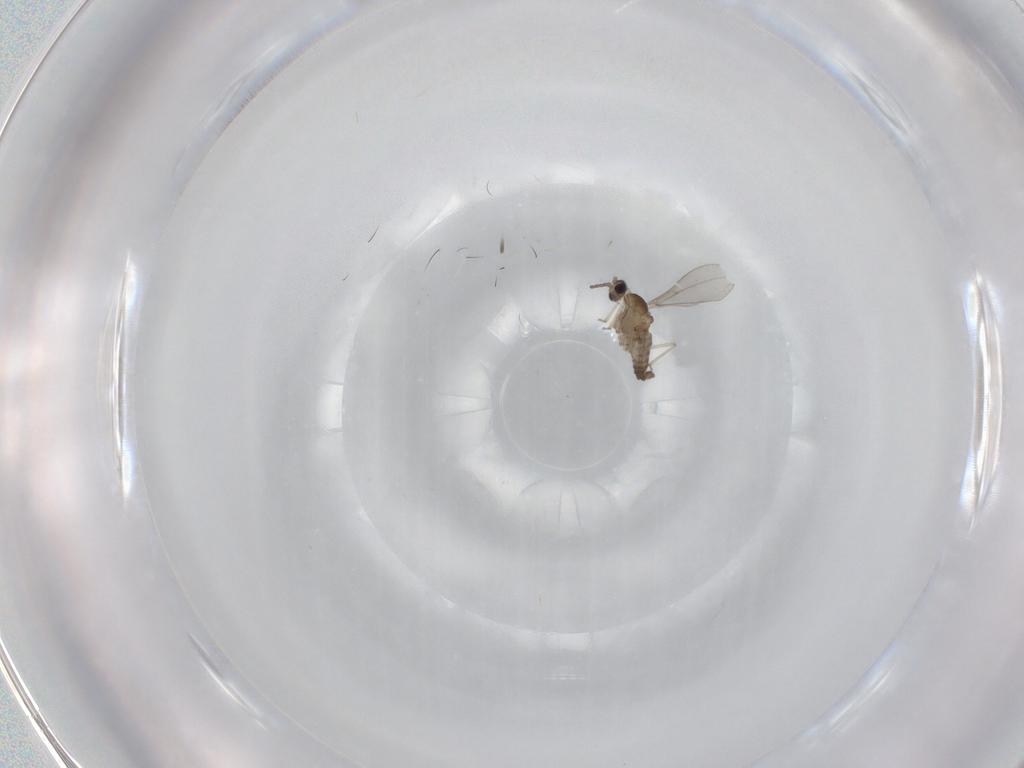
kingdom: Animalia
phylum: Arthropoda
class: Insecta
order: Diptera
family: Cecidomyiidae
